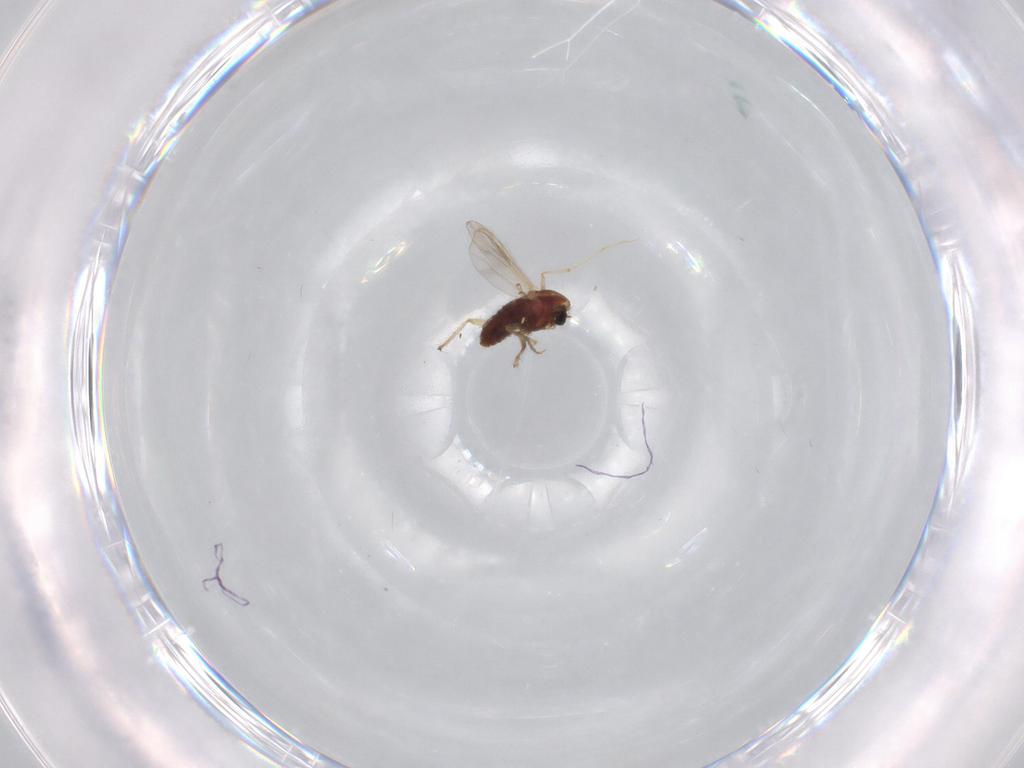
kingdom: Animalia
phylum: Arthropoda
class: Insecta
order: Diptera
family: Chironomidae
